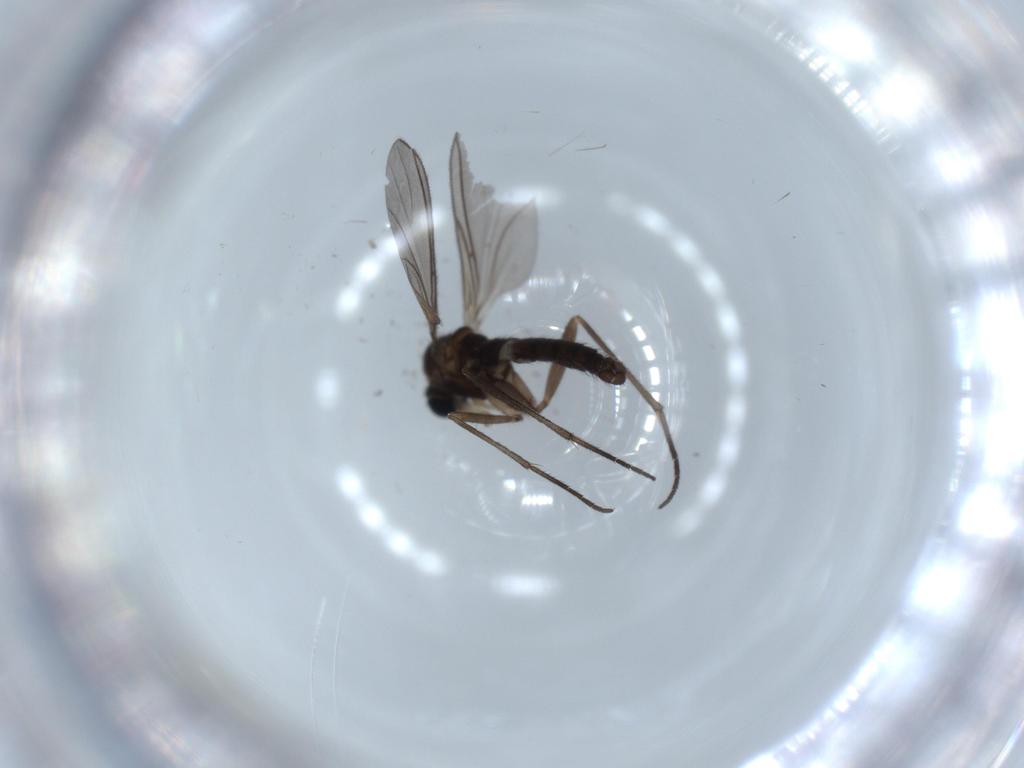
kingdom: Animalia
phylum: Arthropoda
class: Insecta
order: Diptera
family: Sciaridae
